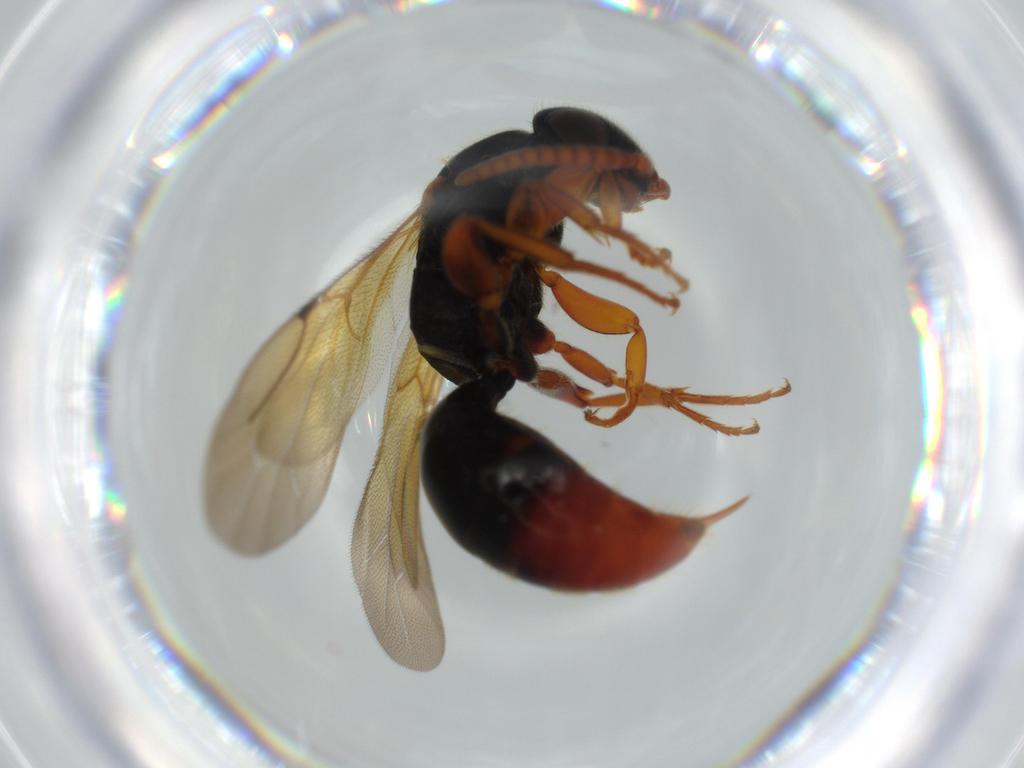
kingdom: Animalia
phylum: Arthropoda
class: Insecta
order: Hymenoptera
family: Bethylidae
